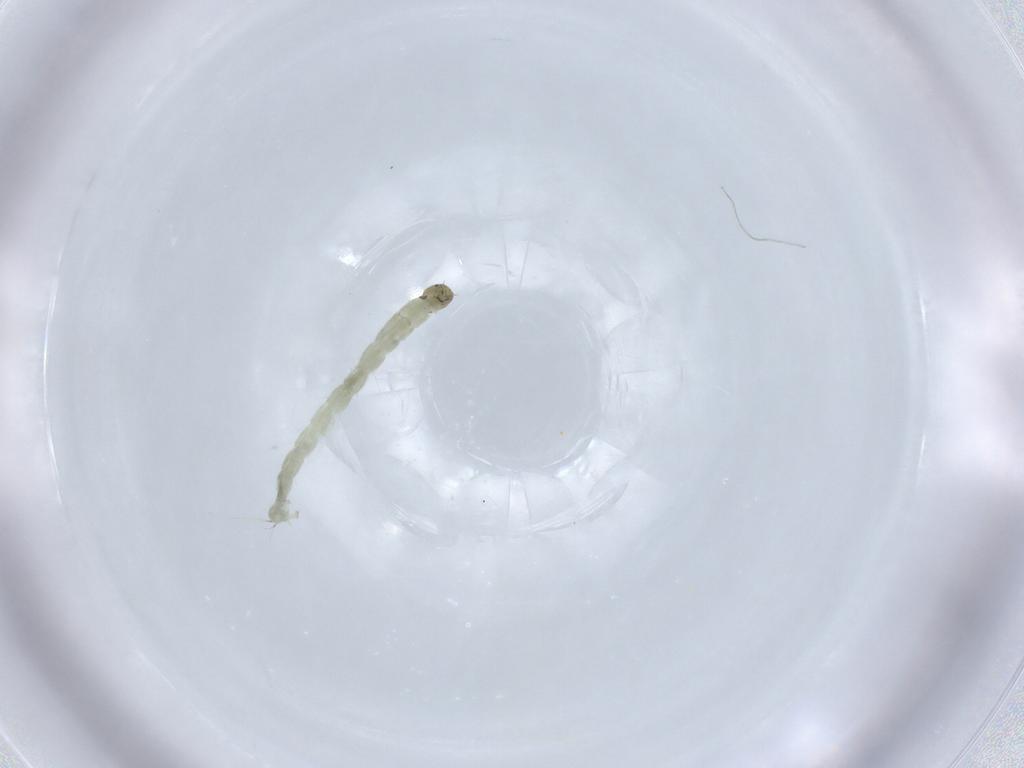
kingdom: Animalia
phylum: Arthropoda
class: Insecta
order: Diptera
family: Chironomidae
